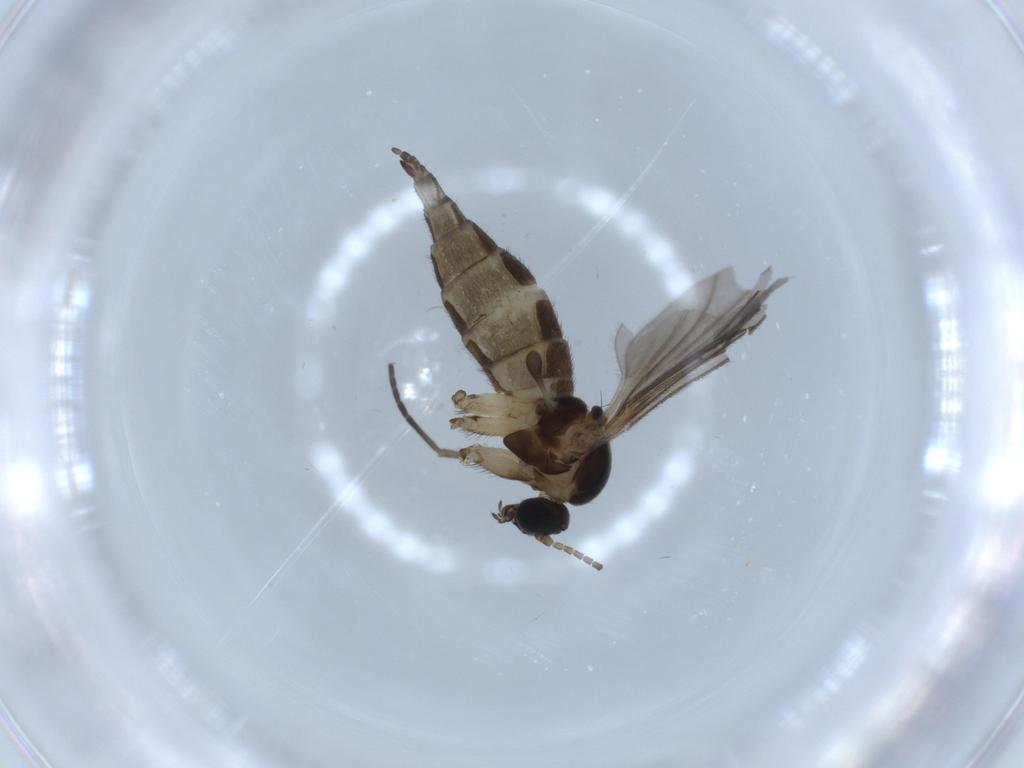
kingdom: Animalia
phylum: Arthropoda
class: Insecta
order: Diptera
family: Sciaridae
